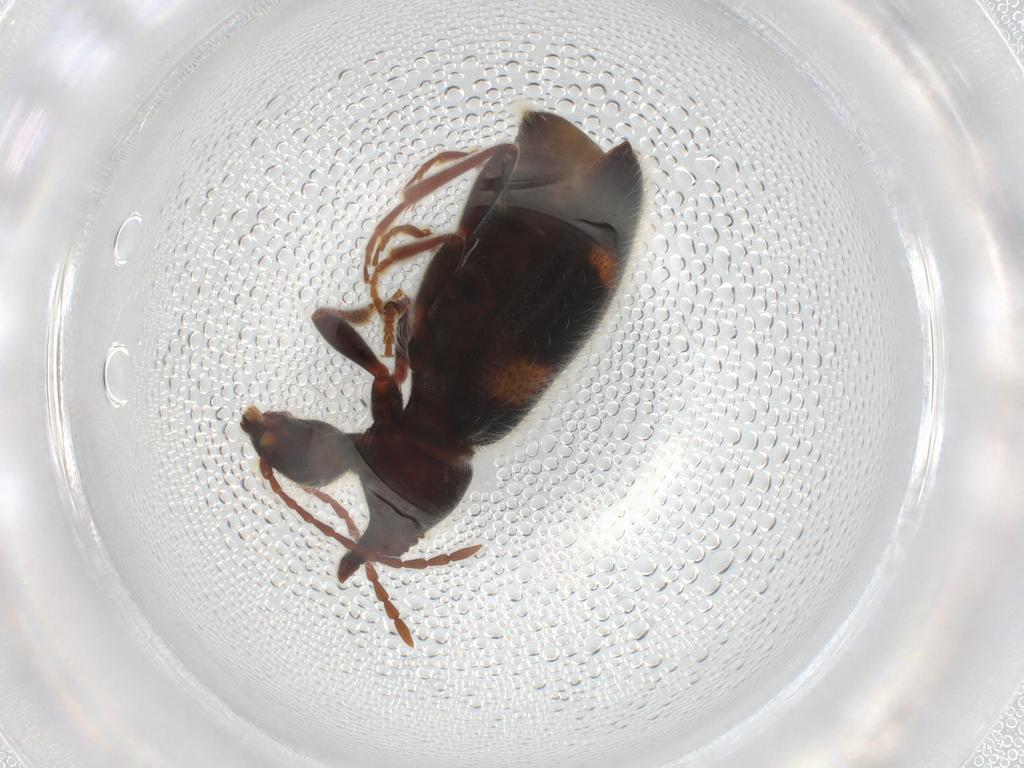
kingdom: Animalia
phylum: Arthropoda
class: Insecta
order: Coleoptera
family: Anthicidae
